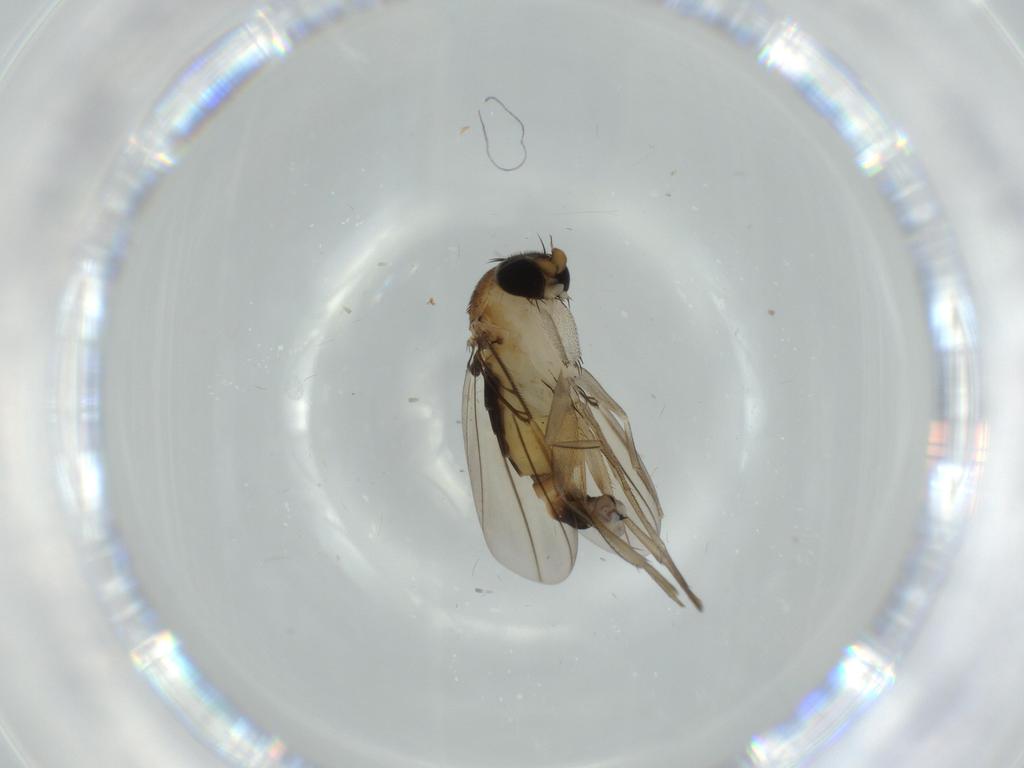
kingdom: Animalia
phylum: Arthropoda
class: Insecta
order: Diptera
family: Phoridae
